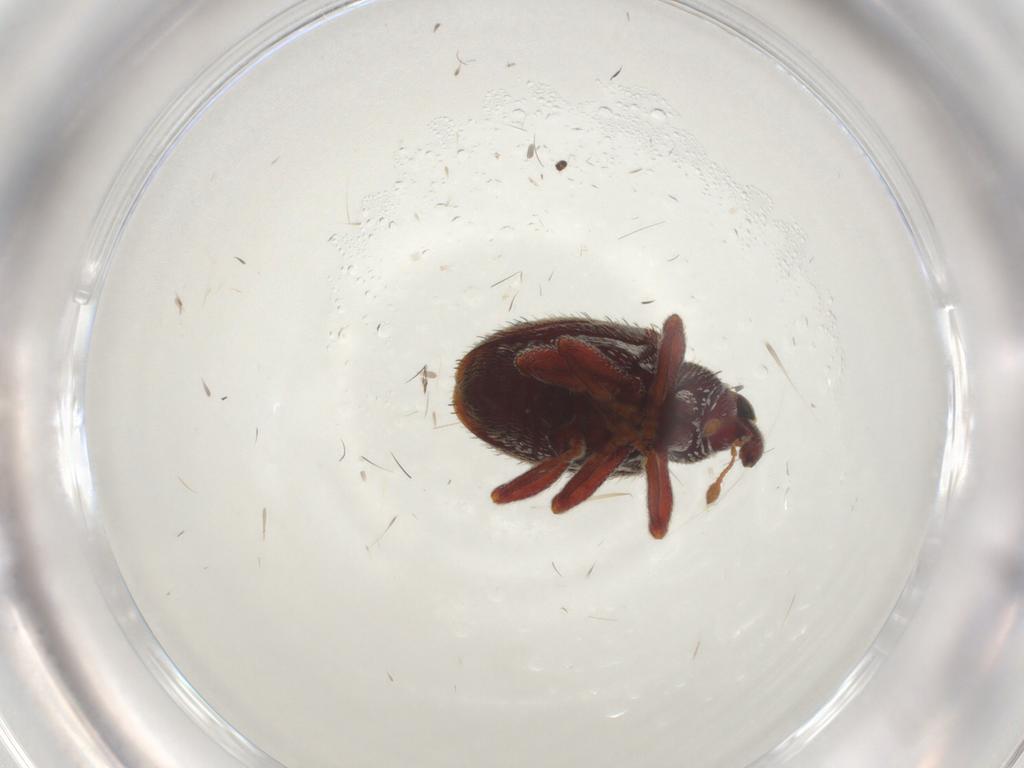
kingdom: Animalia
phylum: Arthropoda
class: Insecta
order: Coleoptera
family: Curculionidae
